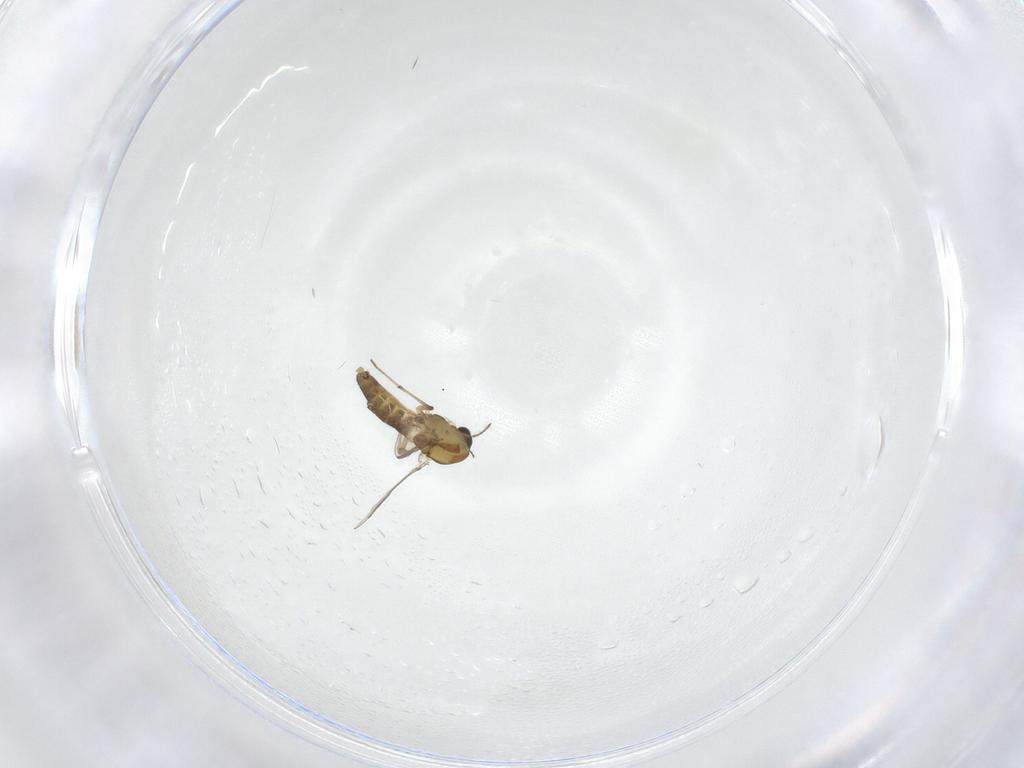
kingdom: Animalia
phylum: Arthropoda
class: Insecta
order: Diptera
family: Chironomidae
